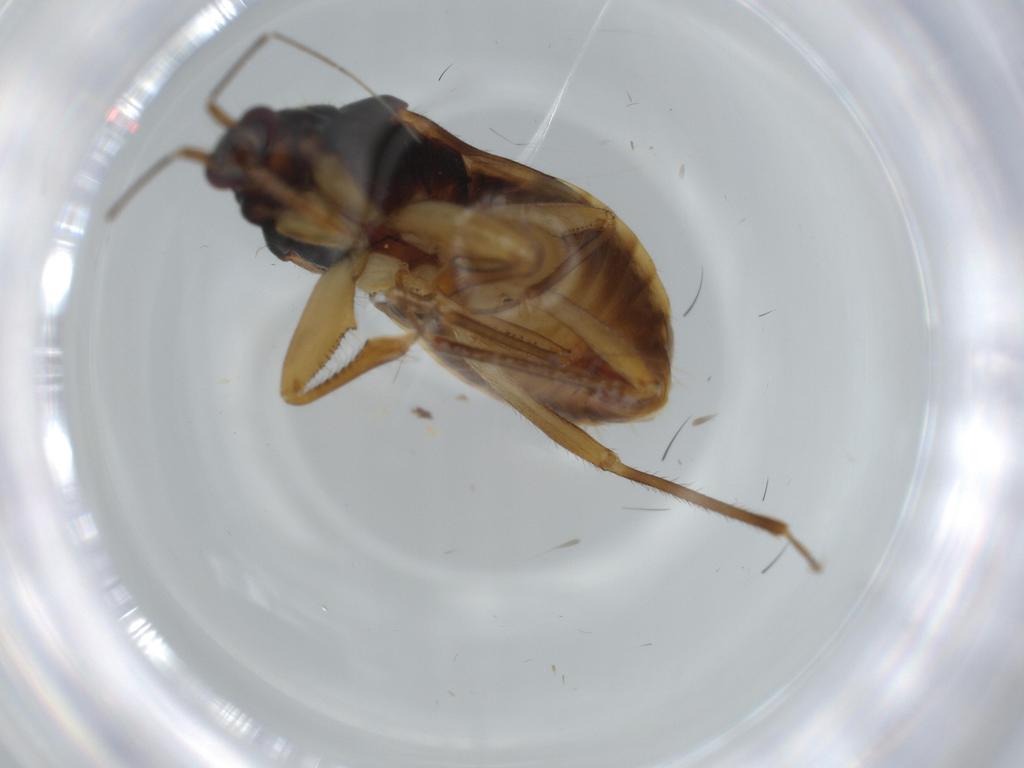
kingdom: Animalia
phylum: Arthropoda
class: Insecta
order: Hemiptera
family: Nabidae
